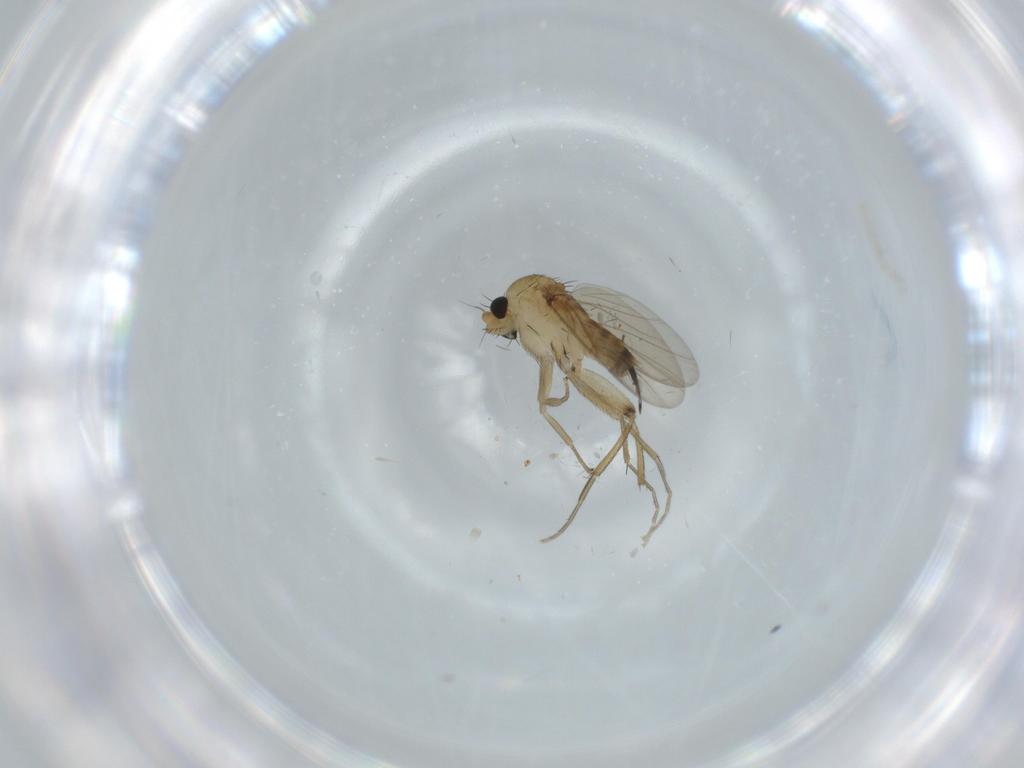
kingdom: Animalia
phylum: Arthropoda
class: Insecta
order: Diptera
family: Phoridae
